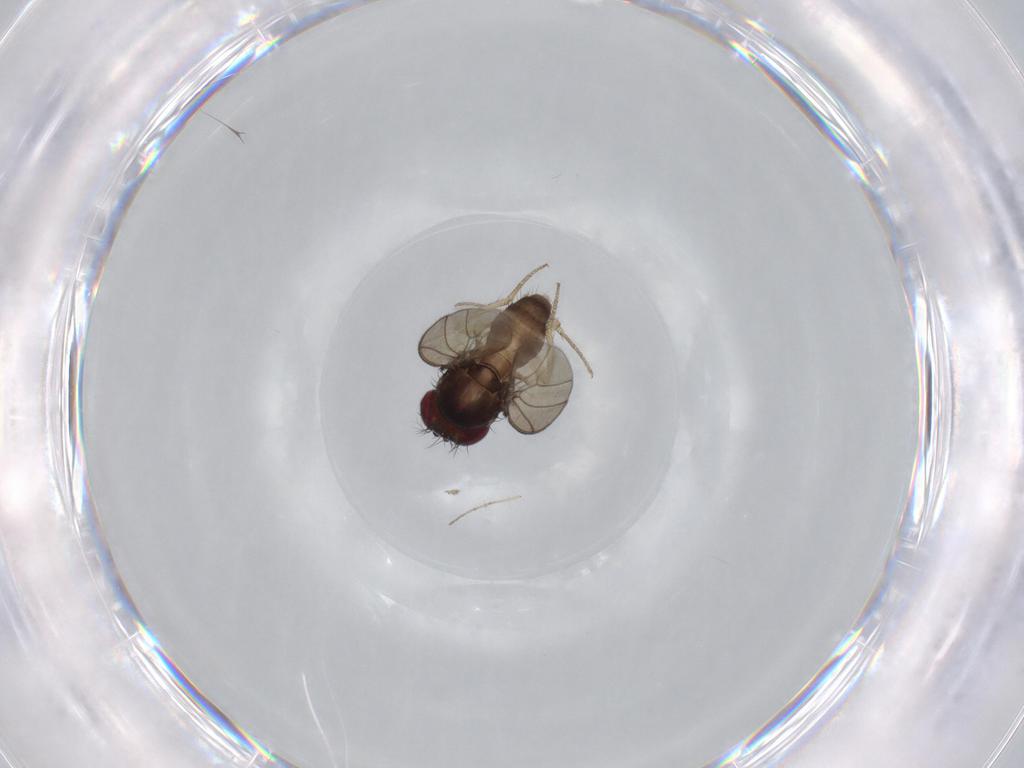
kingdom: Animalia
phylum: Arthropoda
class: Insecta
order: Diptera
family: Drosophilidae
